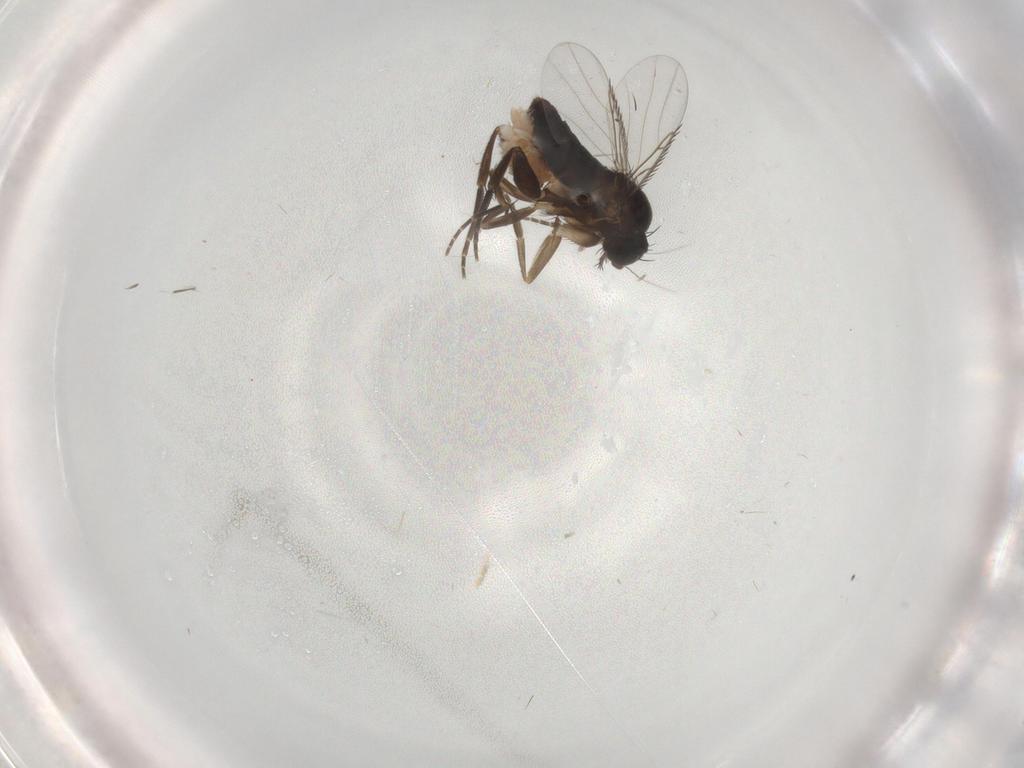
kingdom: Animalia
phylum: Arthropoda
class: Insecta
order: Diptera
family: Phoridae
